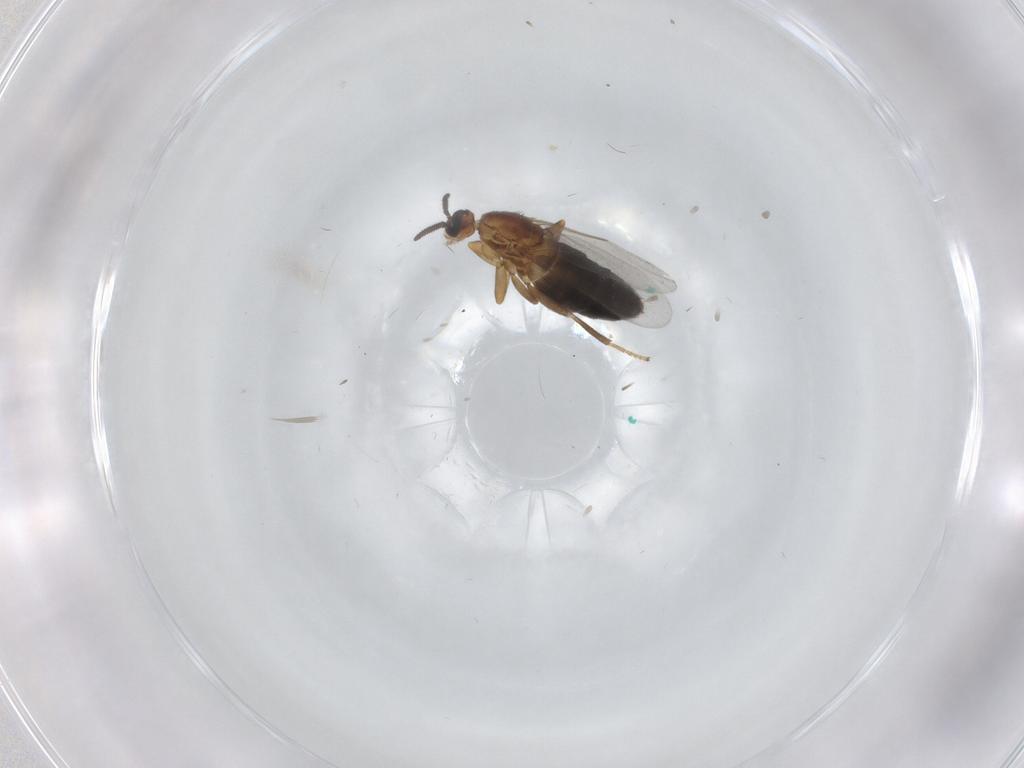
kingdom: Animalia
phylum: Arthropoda
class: Insecta
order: Diptera
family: Scatopsidae
